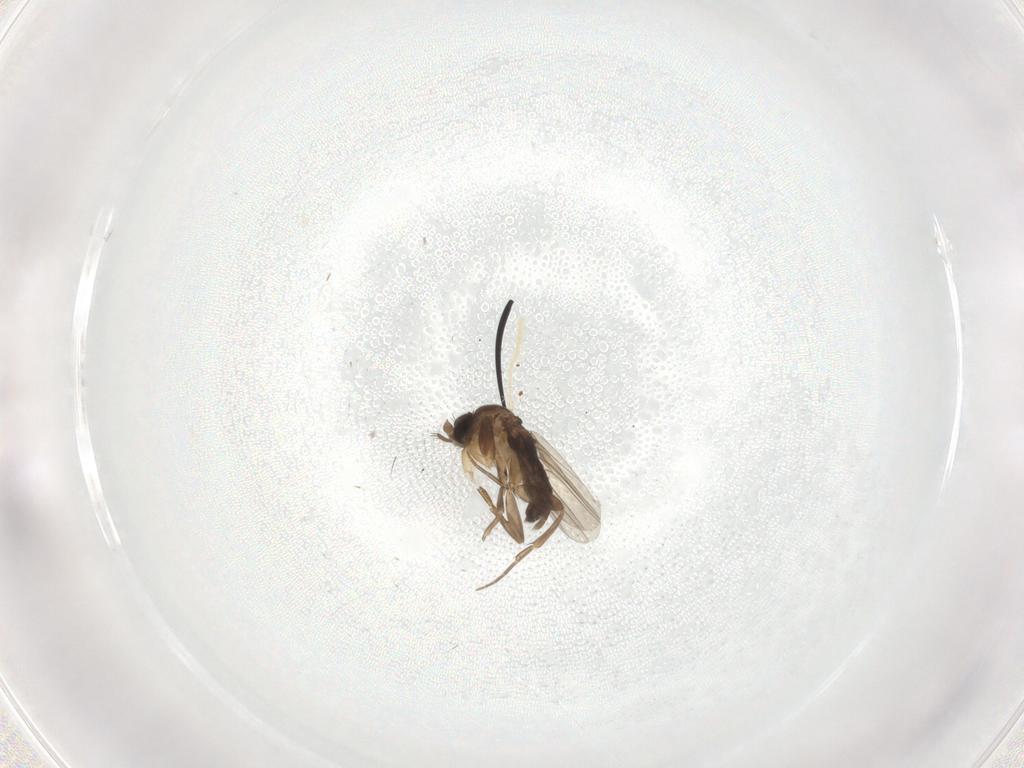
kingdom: Animalia
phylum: Arthropoda
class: Insecta
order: Diptera
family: Phoridae
